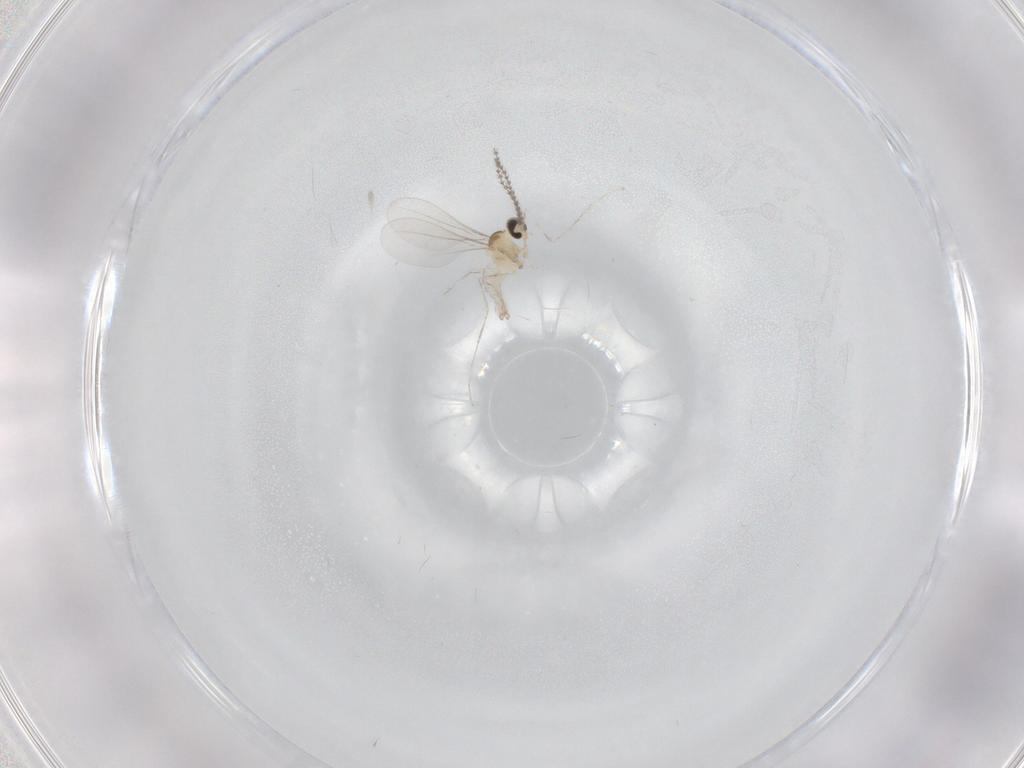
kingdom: Animalia
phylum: Arthropoda
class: Insecta
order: Diptera
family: Cecidomyiidae
